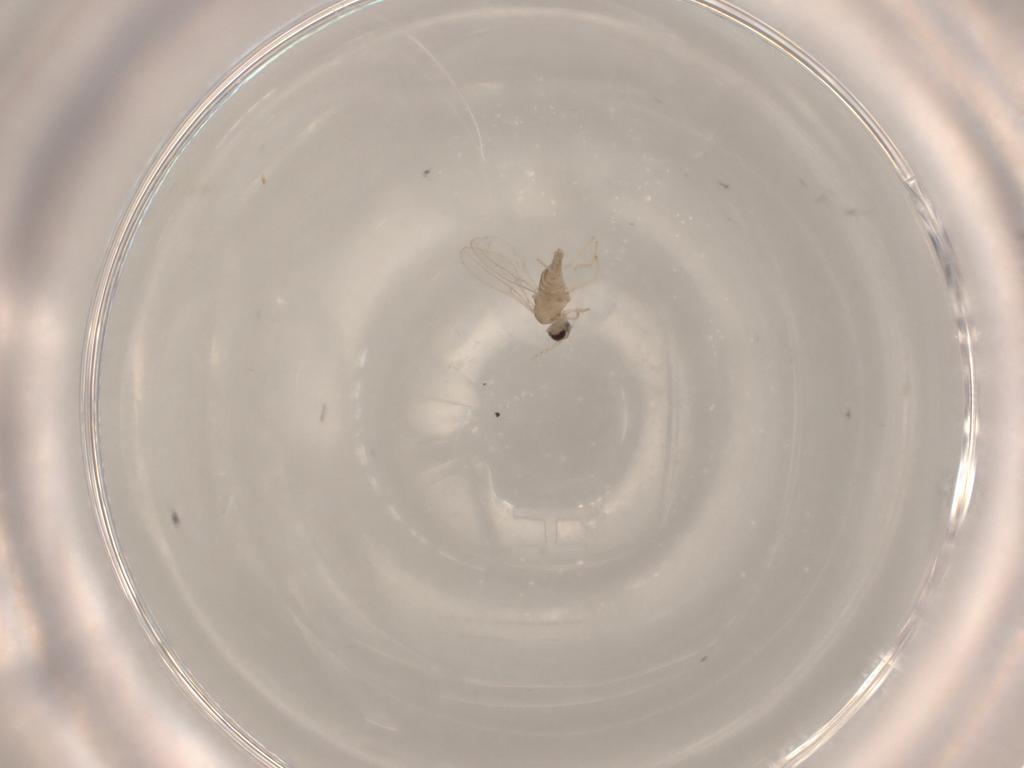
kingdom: Animalia
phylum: Arthropoda
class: Insecta
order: Diptera
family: Cecidomyiidae
